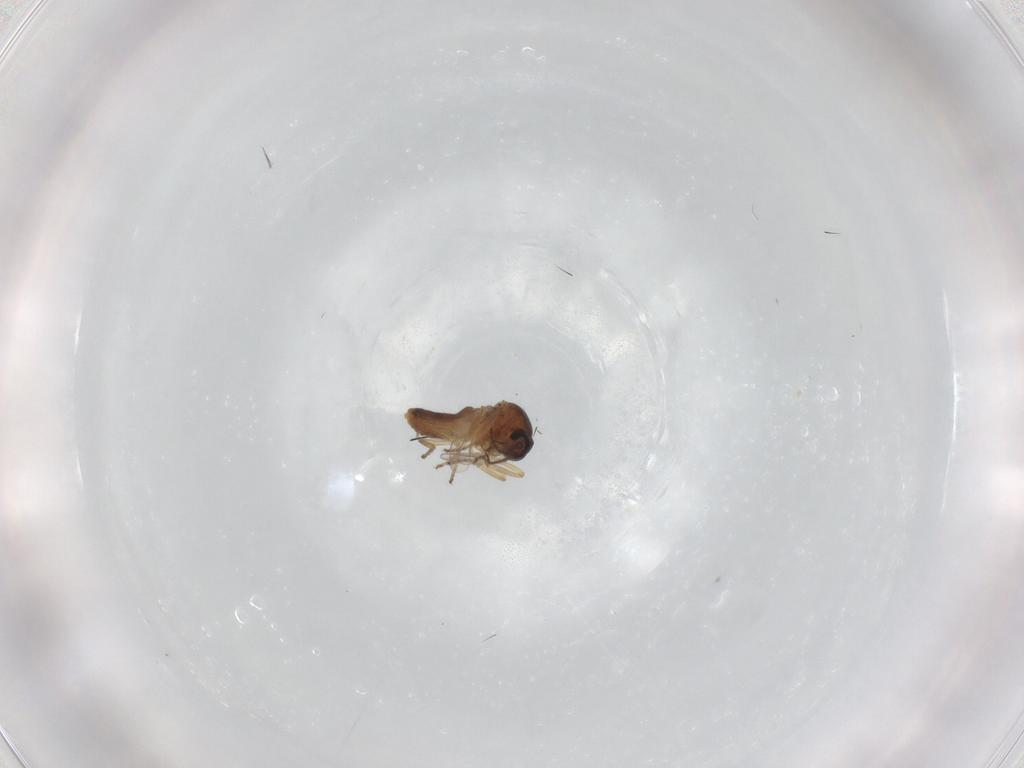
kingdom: Animalia
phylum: Arthropoda
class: Insecta
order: Diptera
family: Ceratopogonidae
